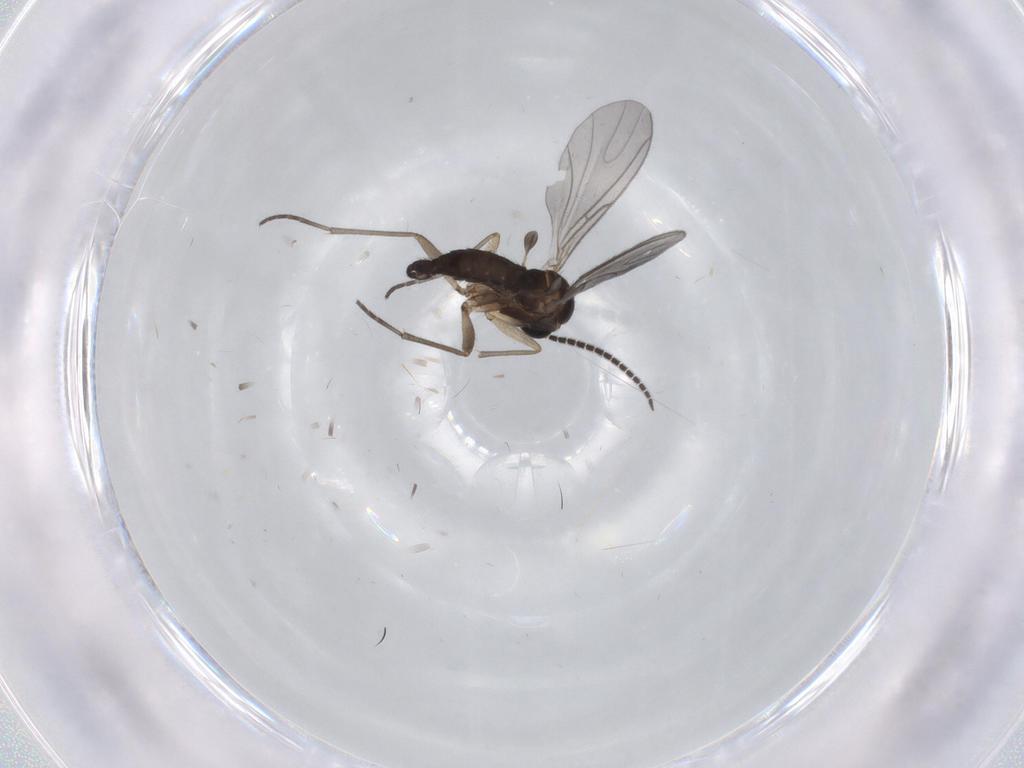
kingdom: Animalia
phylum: Arthropoda
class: Insecta
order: Diptera
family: Sciaridae
